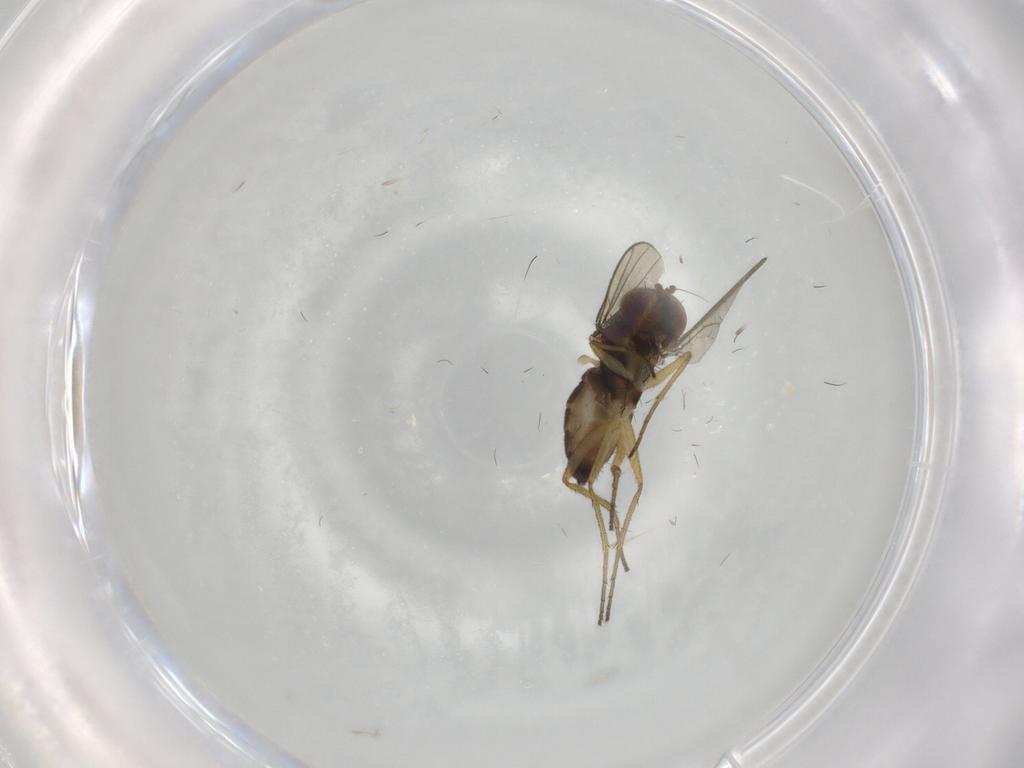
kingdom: Animalia
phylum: Arthropoda
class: Insecta
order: Diptera
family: Dolichopodidae
